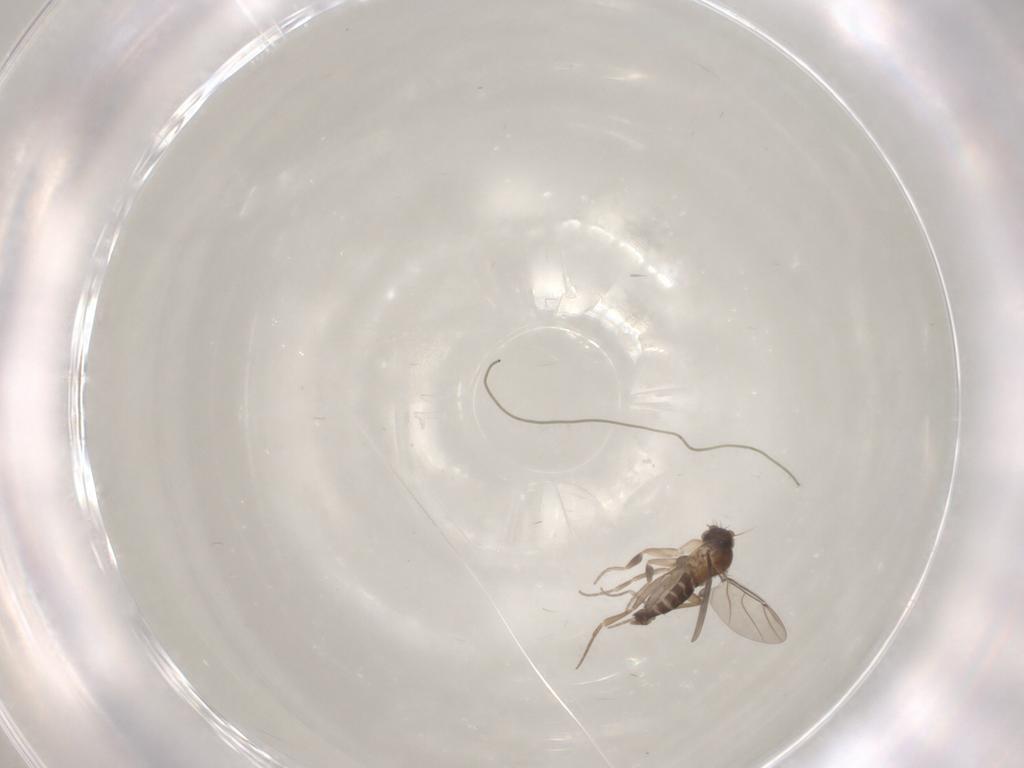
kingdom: Animalia
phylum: Arthropoda
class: Insecta
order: Diptera
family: Phoridae
